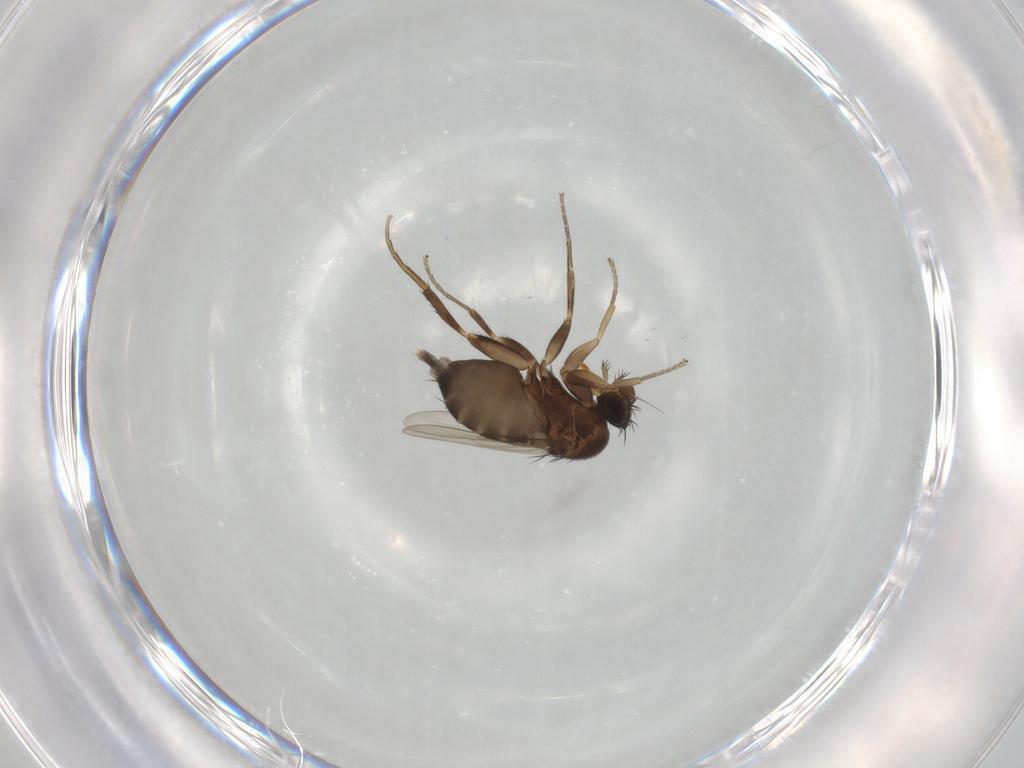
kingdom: Animalia
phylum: Arthropoda
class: Insecta
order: Diptera
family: Phoridae
